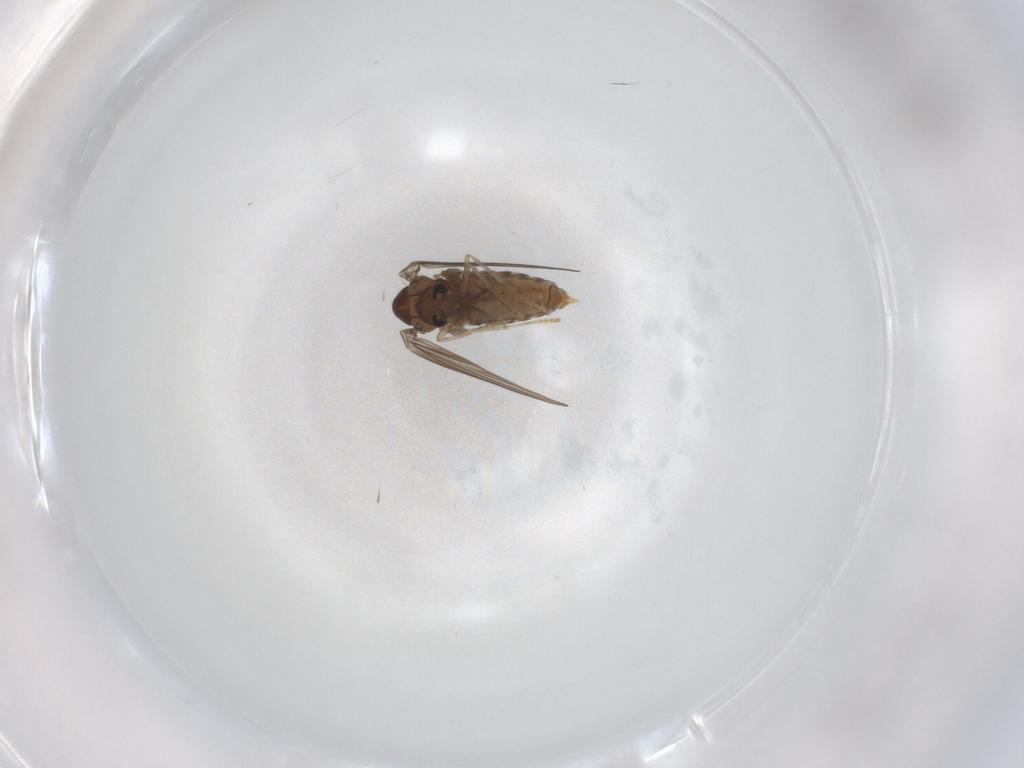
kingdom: Animalia
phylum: Arthropoda
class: Insecta
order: Diptera
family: Psychodidae
